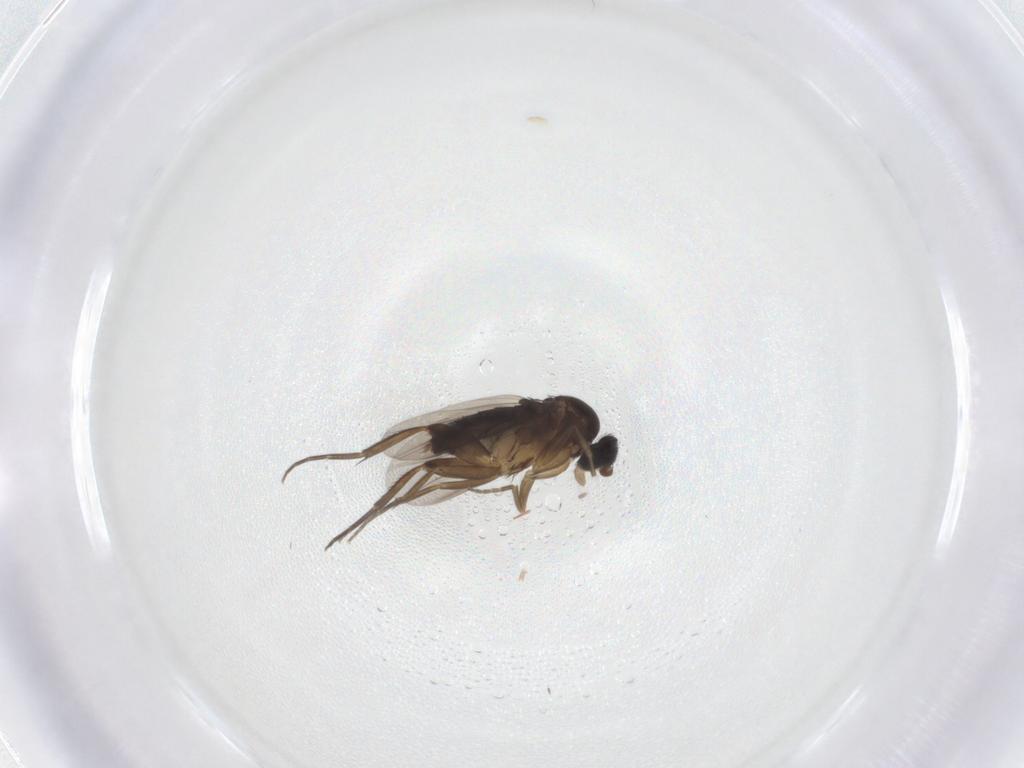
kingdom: Animalia
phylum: Arthropoda
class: Insecta
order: Diptera
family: Phoridae
